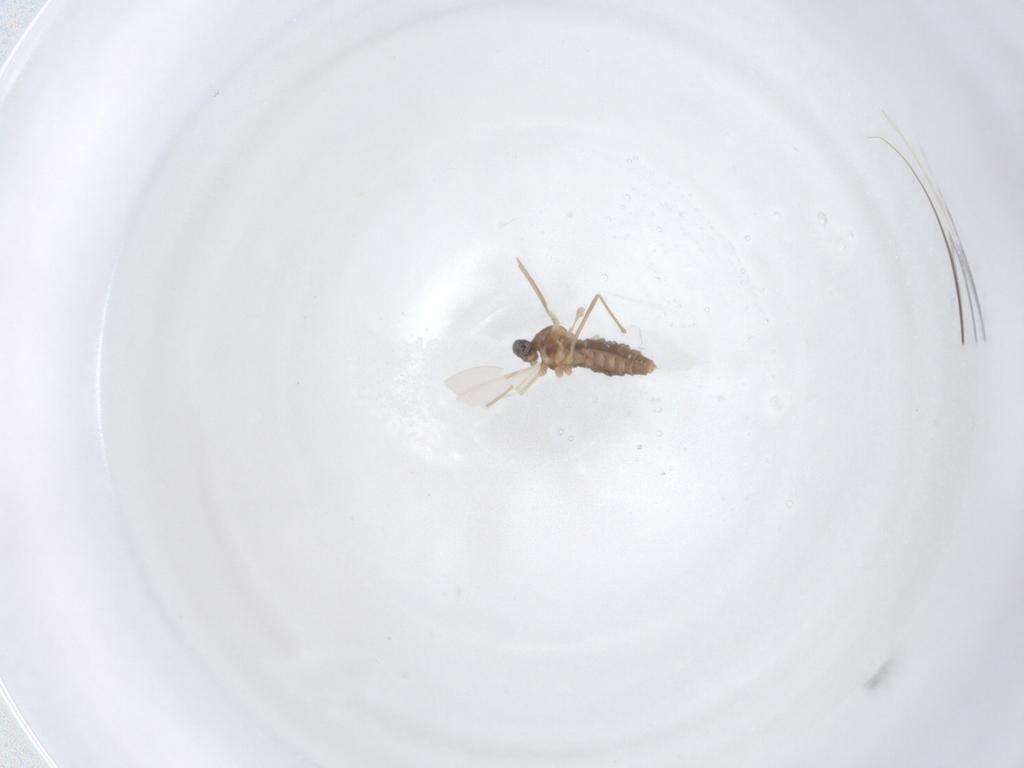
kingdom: Animalia
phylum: Arthropoda
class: Insecta
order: Diptera
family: Cecidomyiidae
